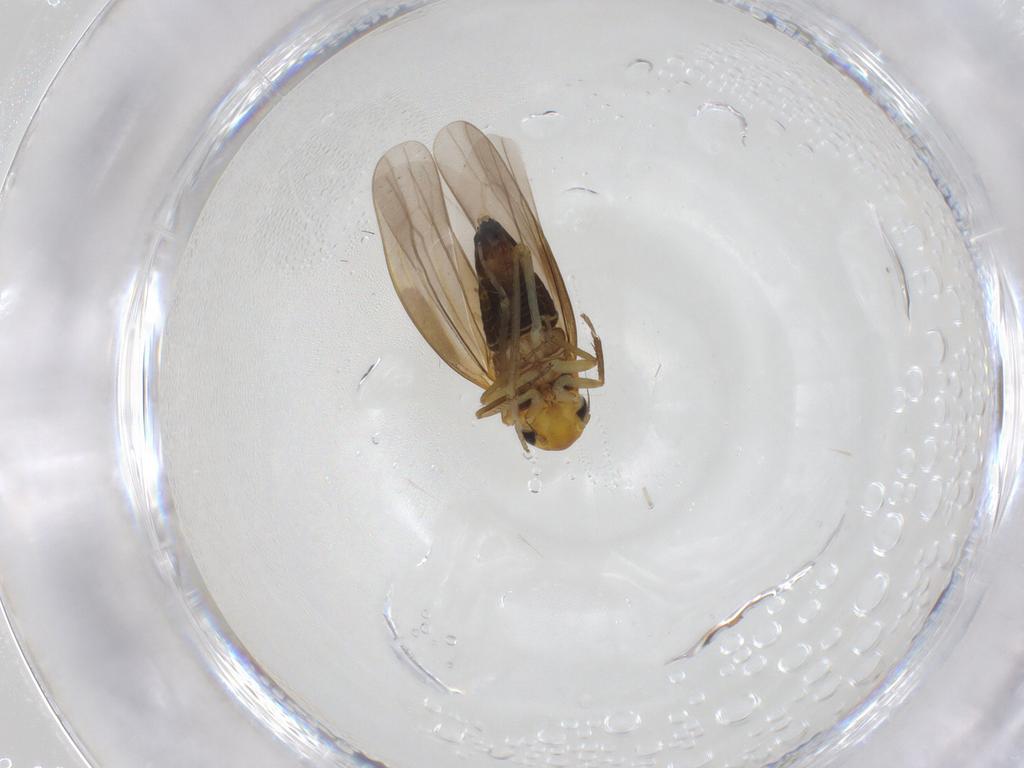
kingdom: Animalia
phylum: Arthropoda
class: Insecta
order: Hemiptera
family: Cicadellidae
